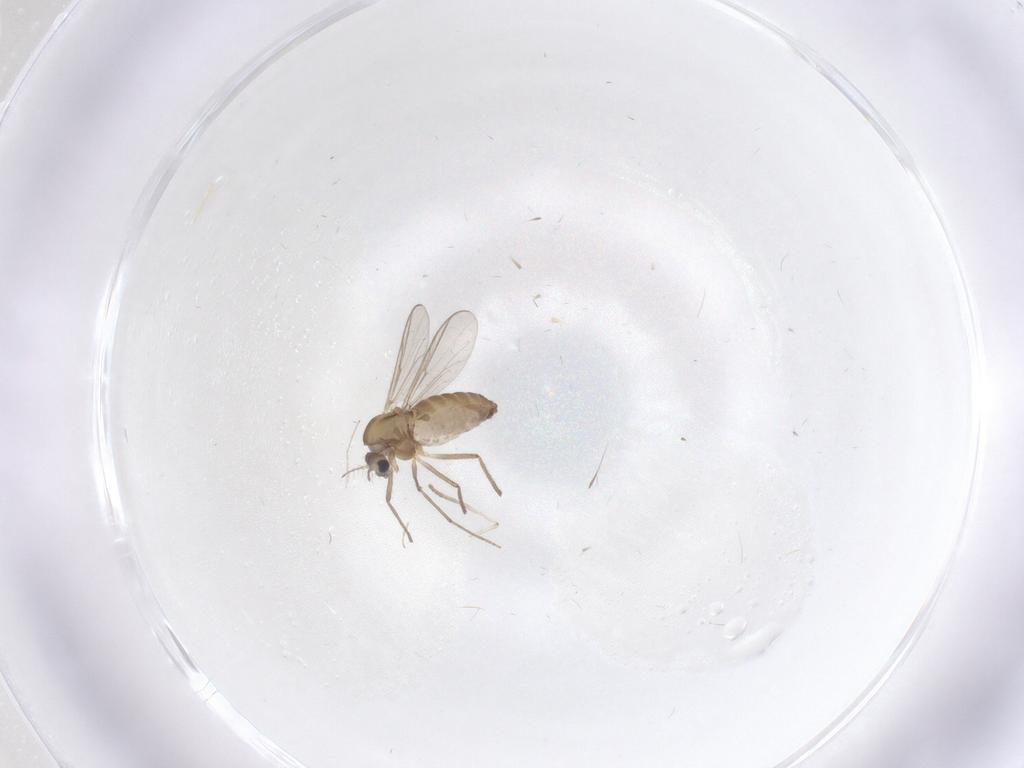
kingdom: Animalia
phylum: Arthropoda
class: Insecta
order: Diptera
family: Chironomidae
